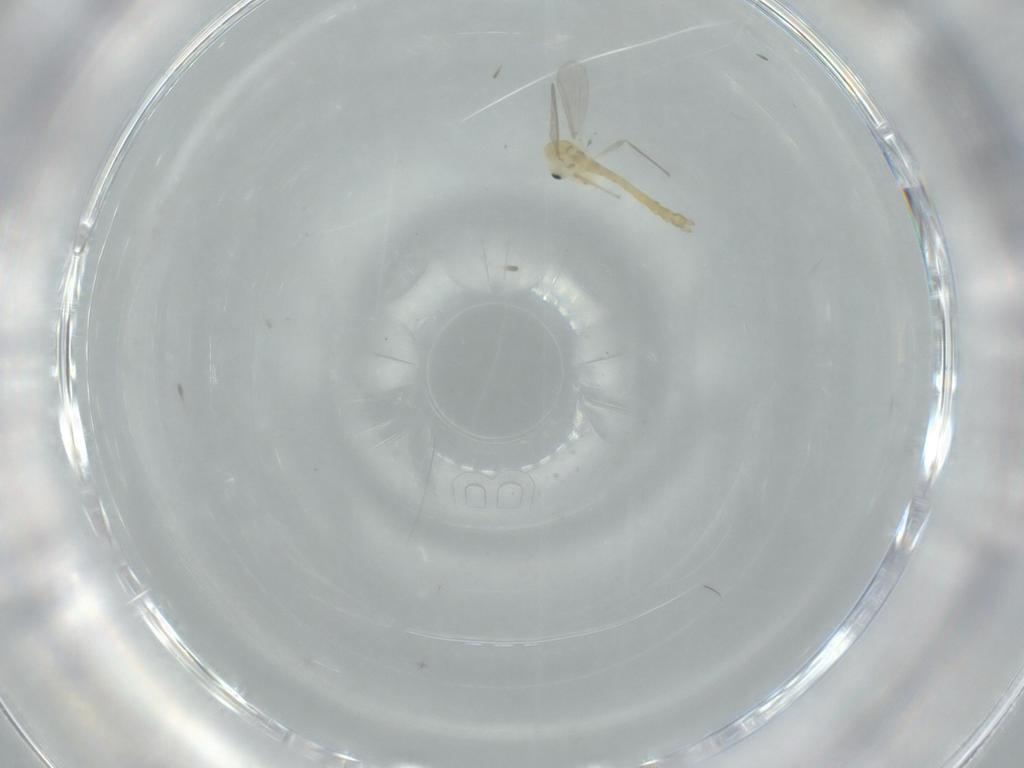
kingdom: Animalia
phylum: Arthropoda
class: Insecta
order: Diptera
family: Chironomidae
